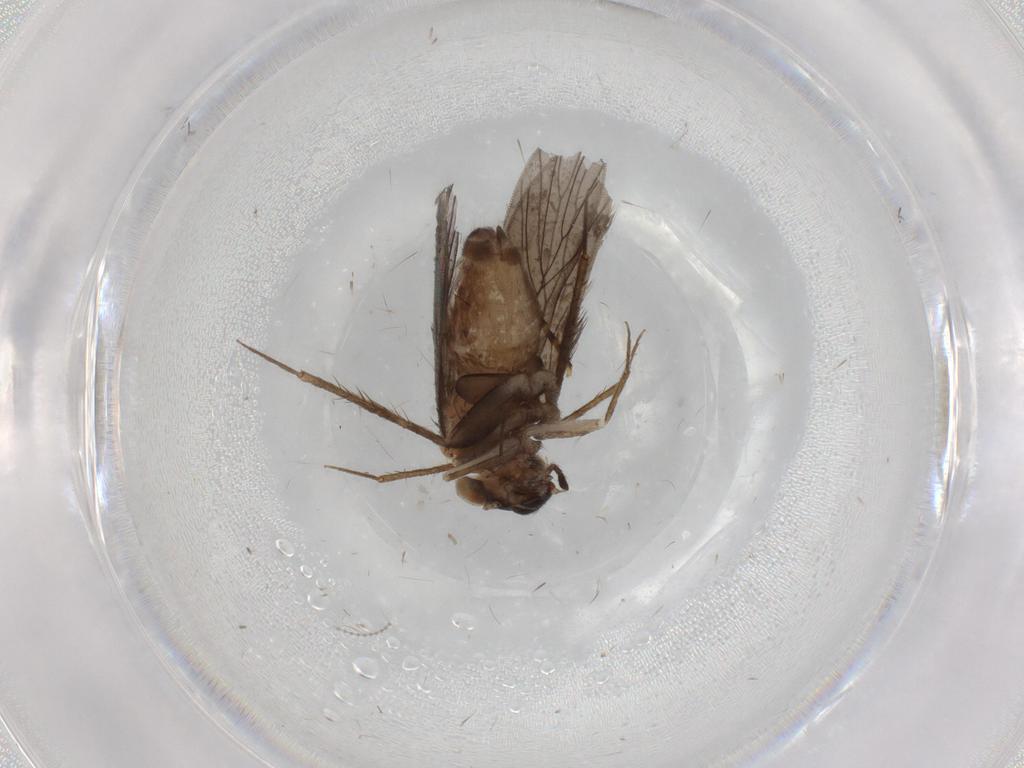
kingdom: Animalia
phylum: Arthropoda
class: Insecta
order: Psocodea
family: Lepidopsocidae
